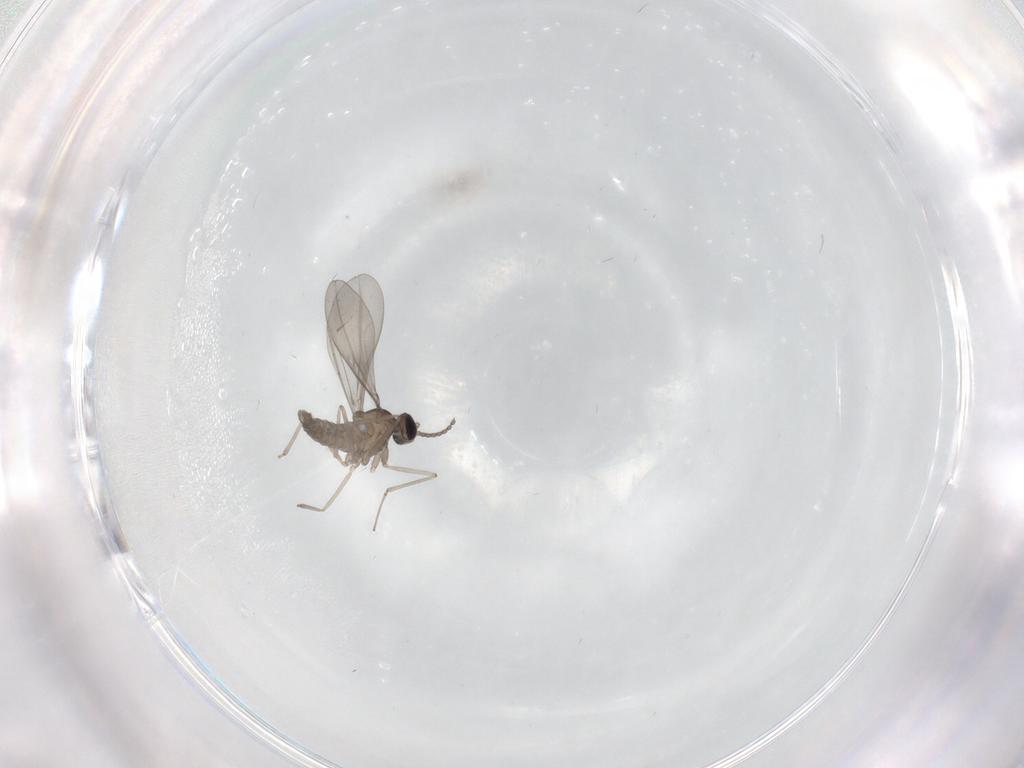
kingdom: Animalia
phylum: Arthropoda
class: Insecta
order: Diptera
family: Cecidomyiidae
